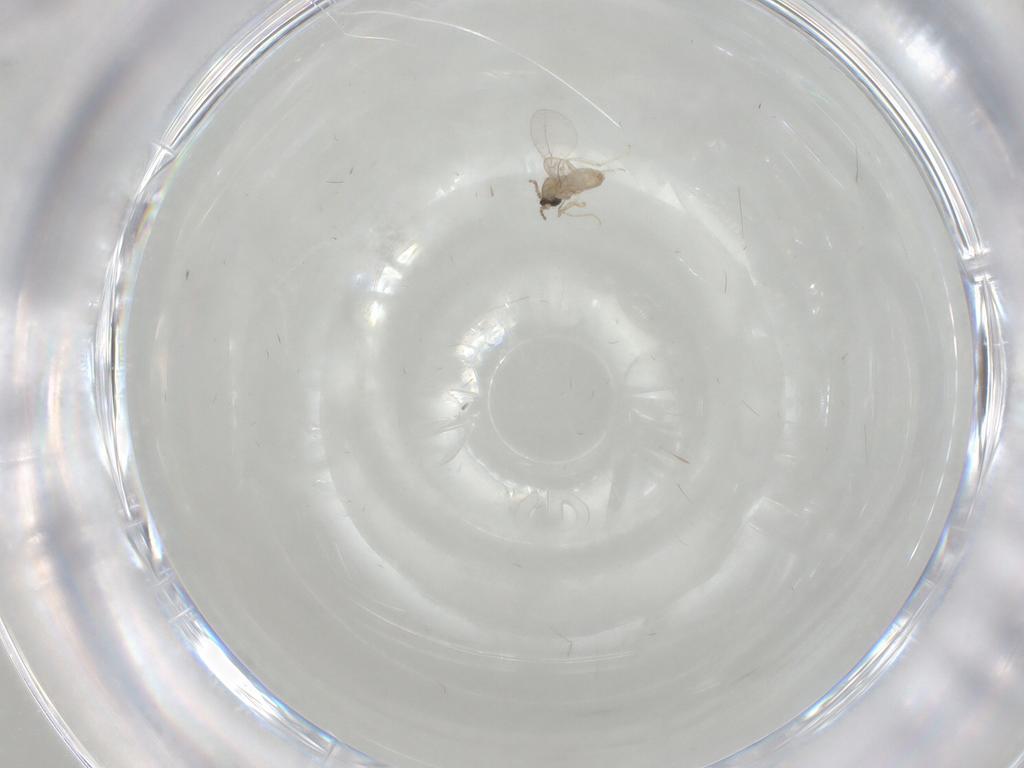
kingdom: Animalia
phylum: Arthropoda
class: Insecta
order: Diptera
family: Cecidomyiidae
